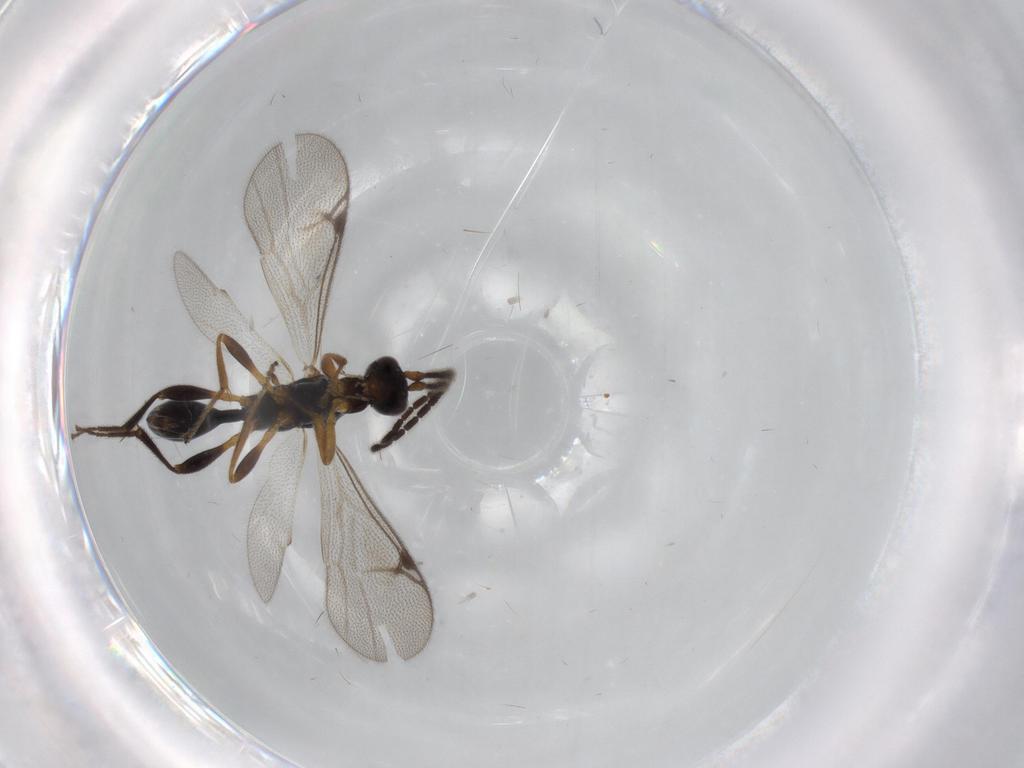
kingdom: Animalia
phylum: Arthropoda
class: Insecta
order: Hymenoptera
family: Proctotrupidae
